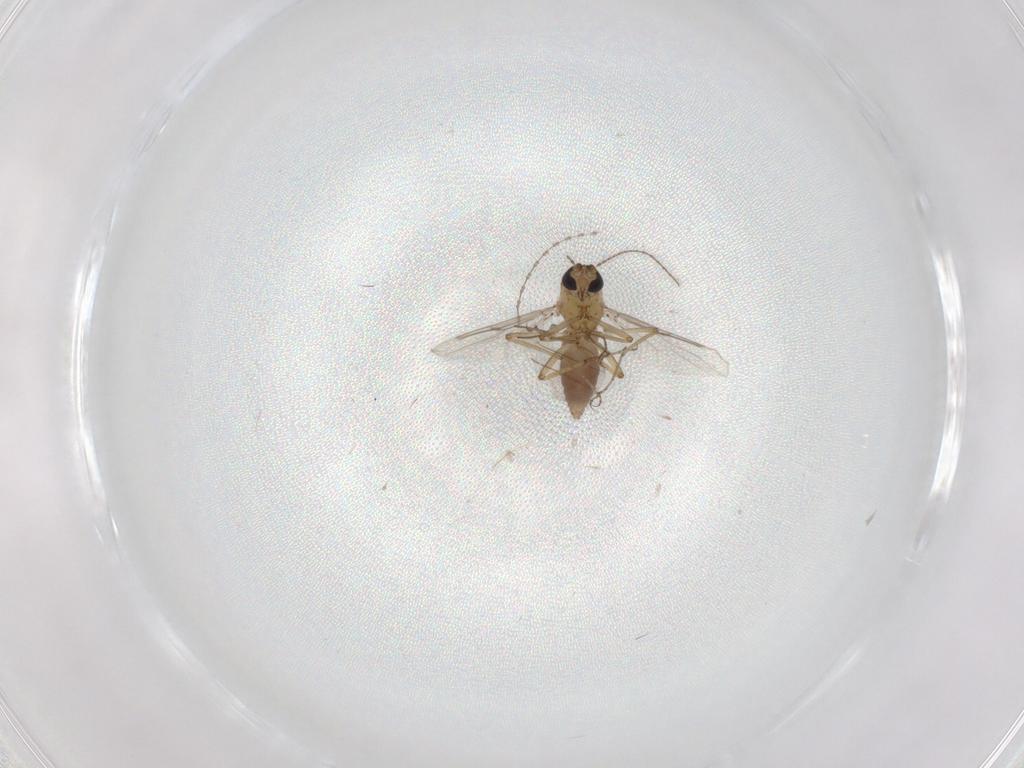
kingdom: Animalia
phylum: Arthropoda
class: Insecta
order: Diptera
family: Cecidomyiidae
